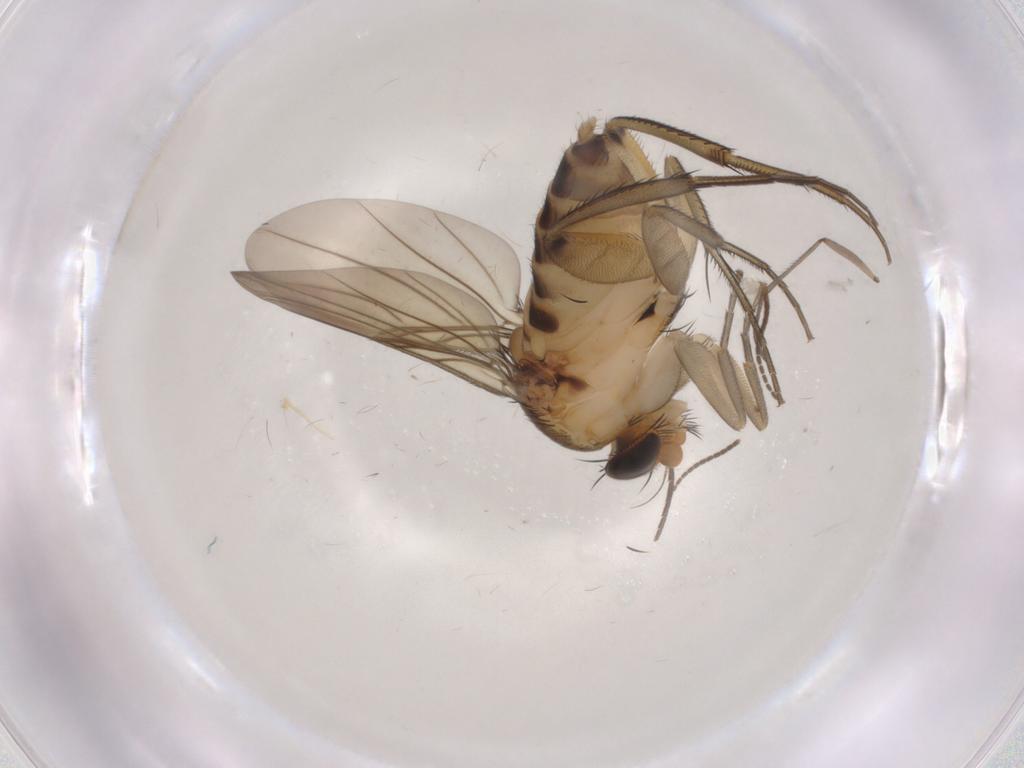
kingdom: Animalia
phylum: Arthropoda
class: Insecta
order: Diptera
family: Sciaridae
